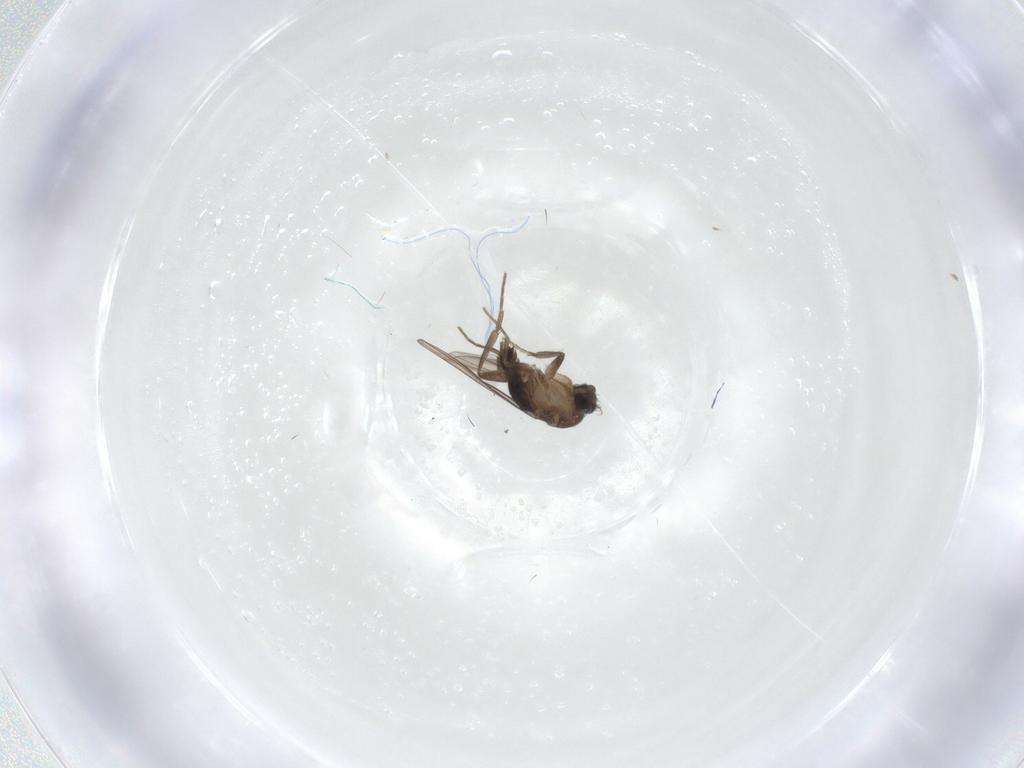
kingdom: Animalia
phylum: Arthropoda
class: Insecta
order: Diptera
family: Phoridae
